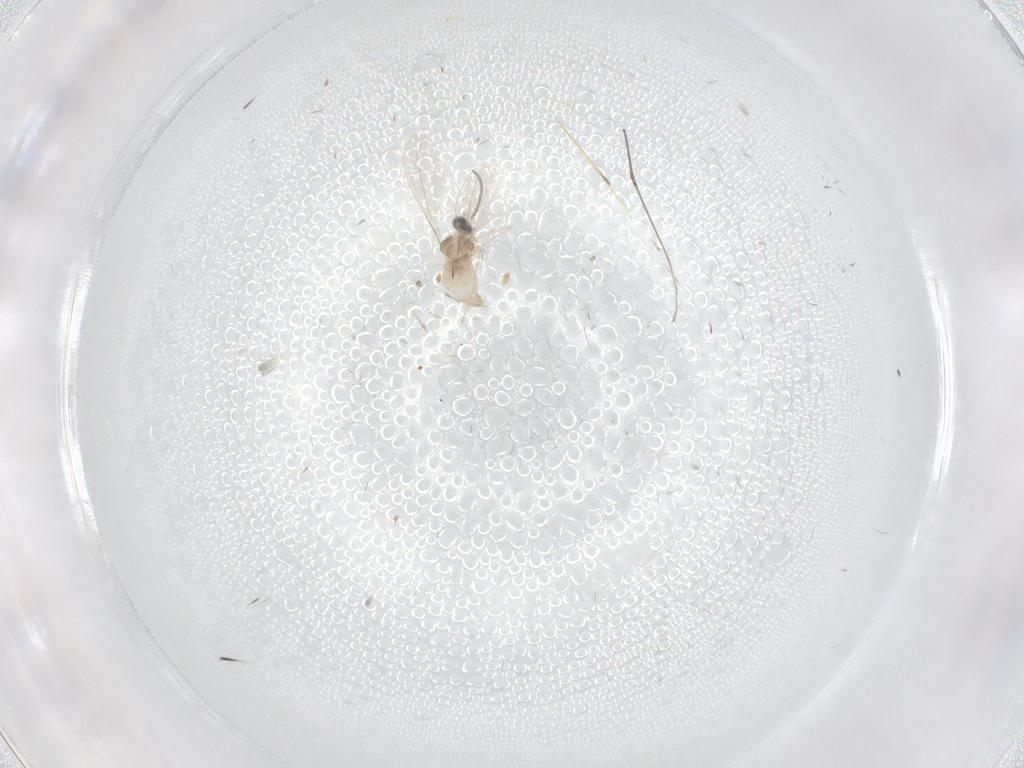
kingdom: Animalia
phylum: Arthropoda
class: Insecta
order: Diptera
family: Cecidomyiidae
